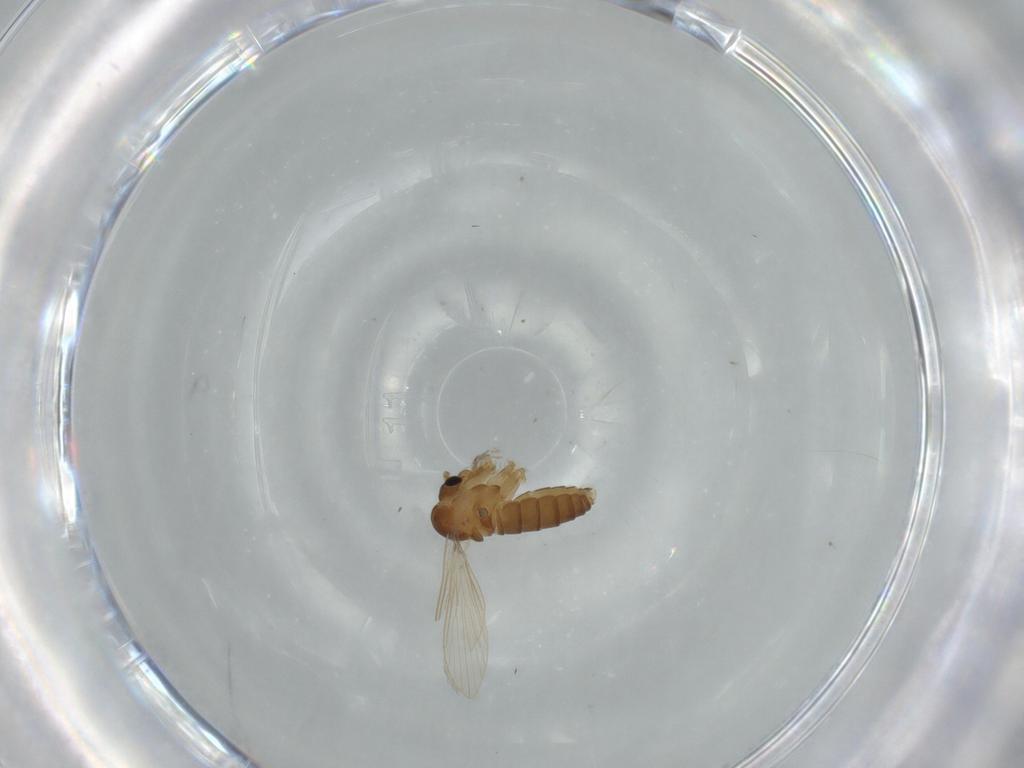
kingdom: Animalia
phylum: Arthropoda
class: Insecta
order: Diptera
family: Psychodidae
